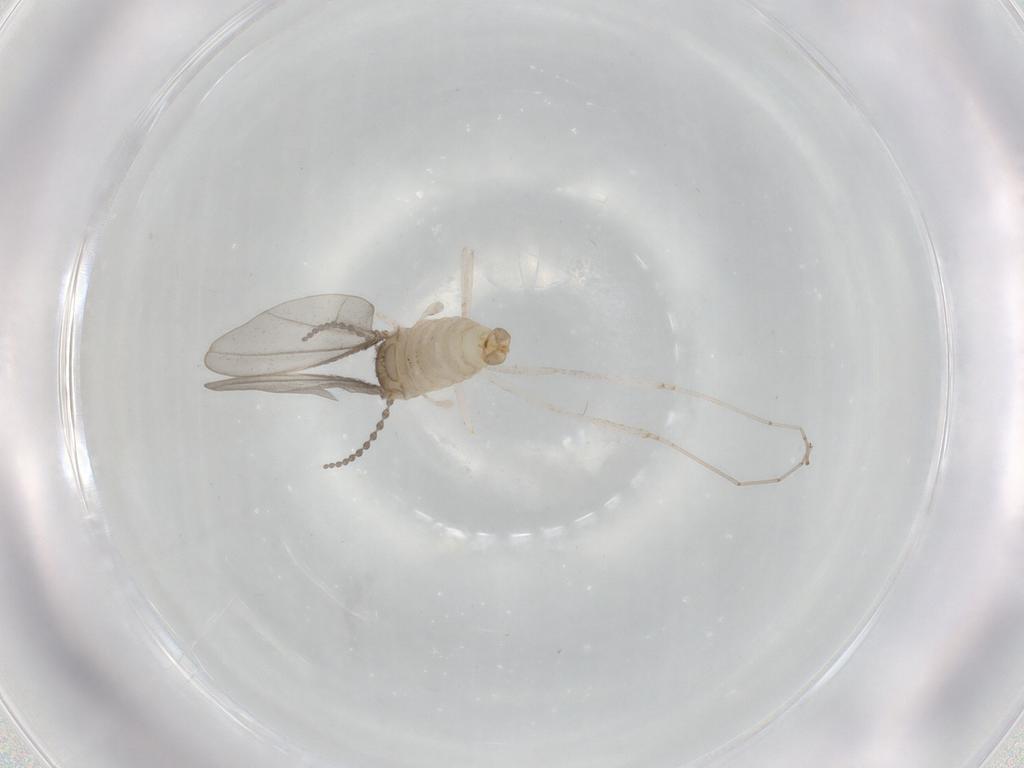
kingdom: Animalia
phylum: Arthropoda
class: Insecta
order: Diptera
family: Cecidomyiidae
